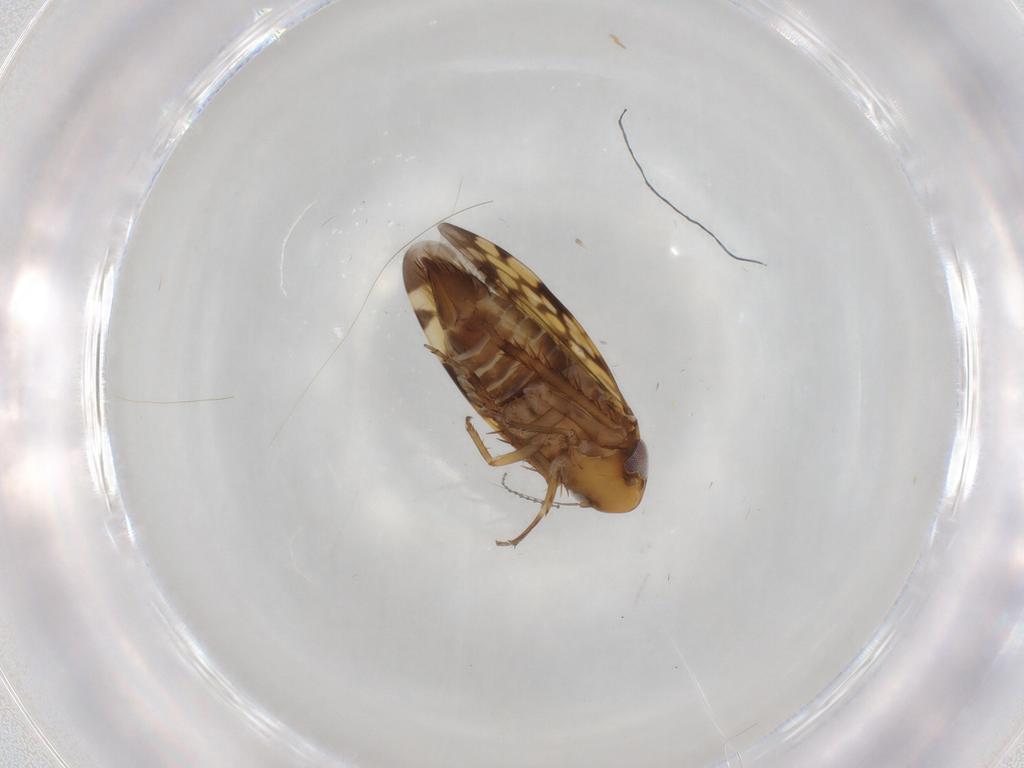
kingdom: Animalia
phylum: Arthropoda
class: Insecta
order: Hemiptera
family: Cicadellidae
